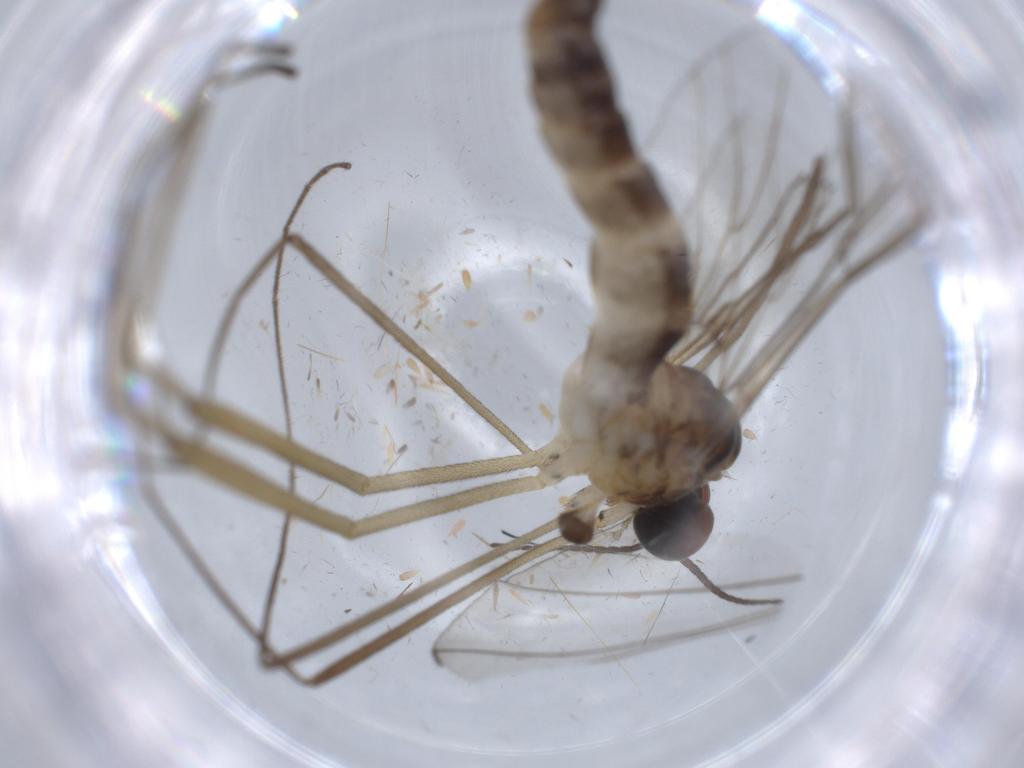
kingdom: Animalia
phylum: Arthropoda
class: Insecta
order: Diptera
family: Blephariceridae
